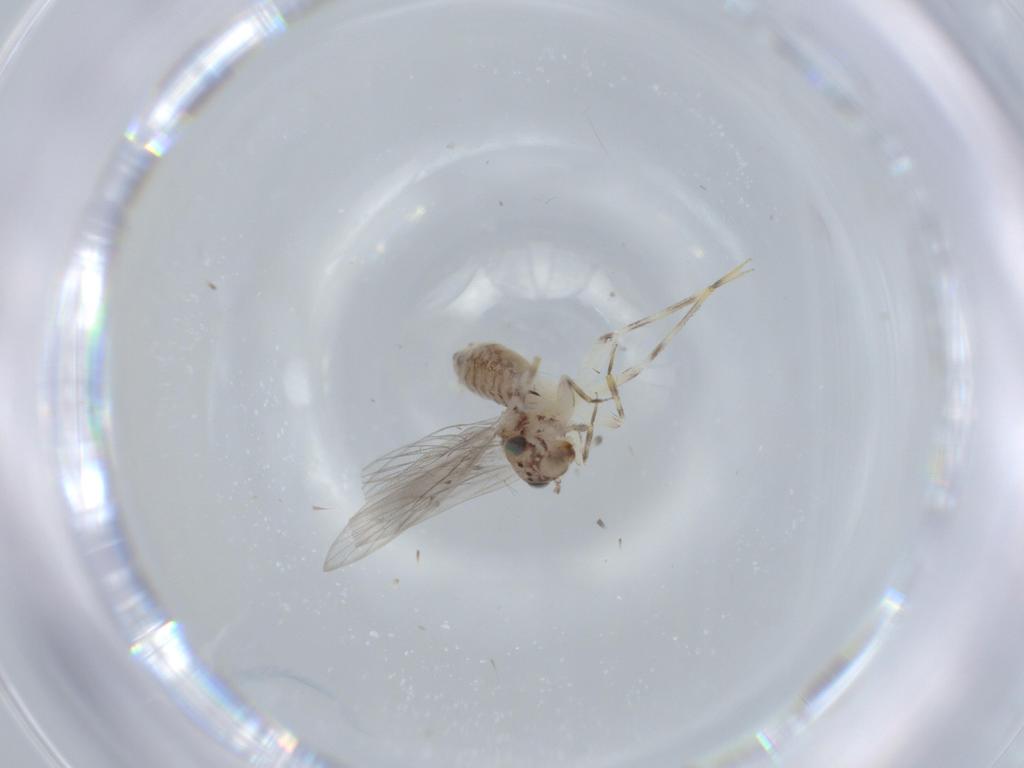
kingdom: Animalia
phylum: Arthropoda
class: Insecta
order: Psocodea
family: Lepidopsocidae
